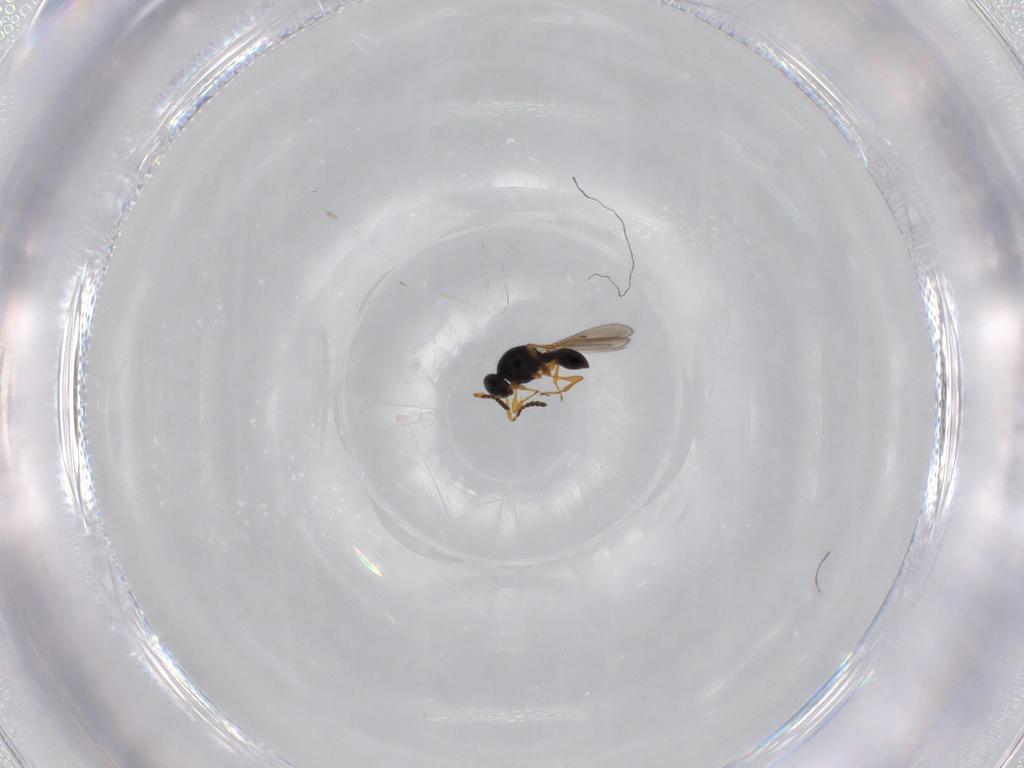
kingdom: Animalia
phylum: Arthropoda
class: Insecta
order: Hymenoptera
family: Platygastridae
